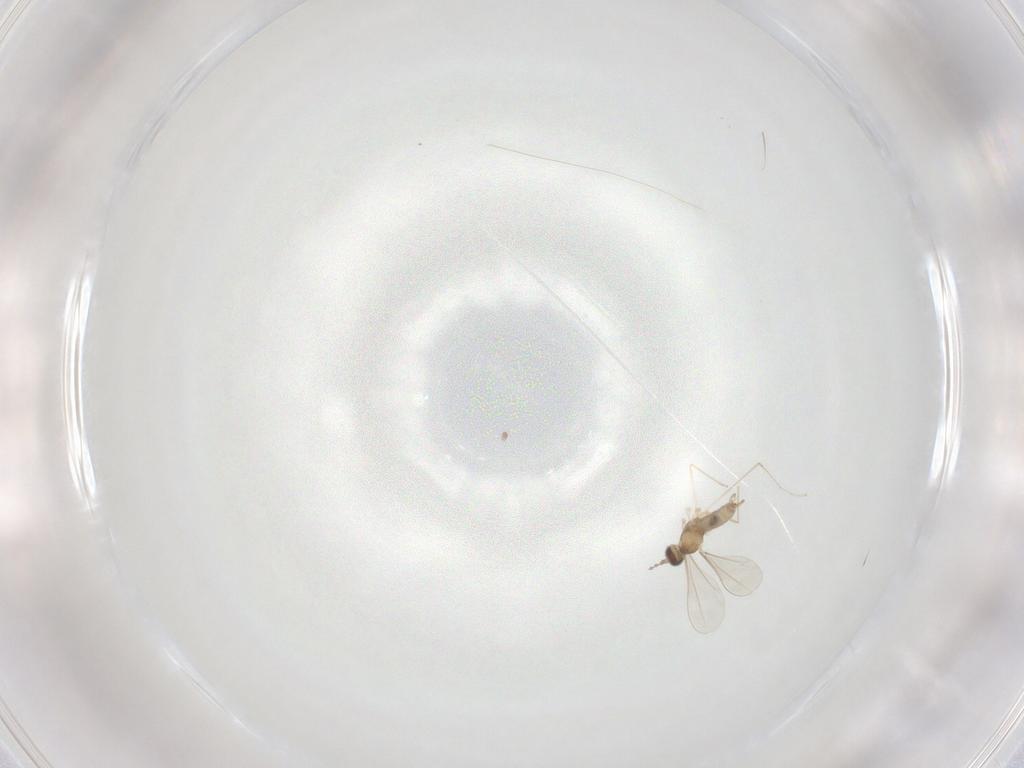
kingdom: Animalia
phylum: Arthropoda
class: Insecta
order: Diptera
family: Cecidomyiidae
